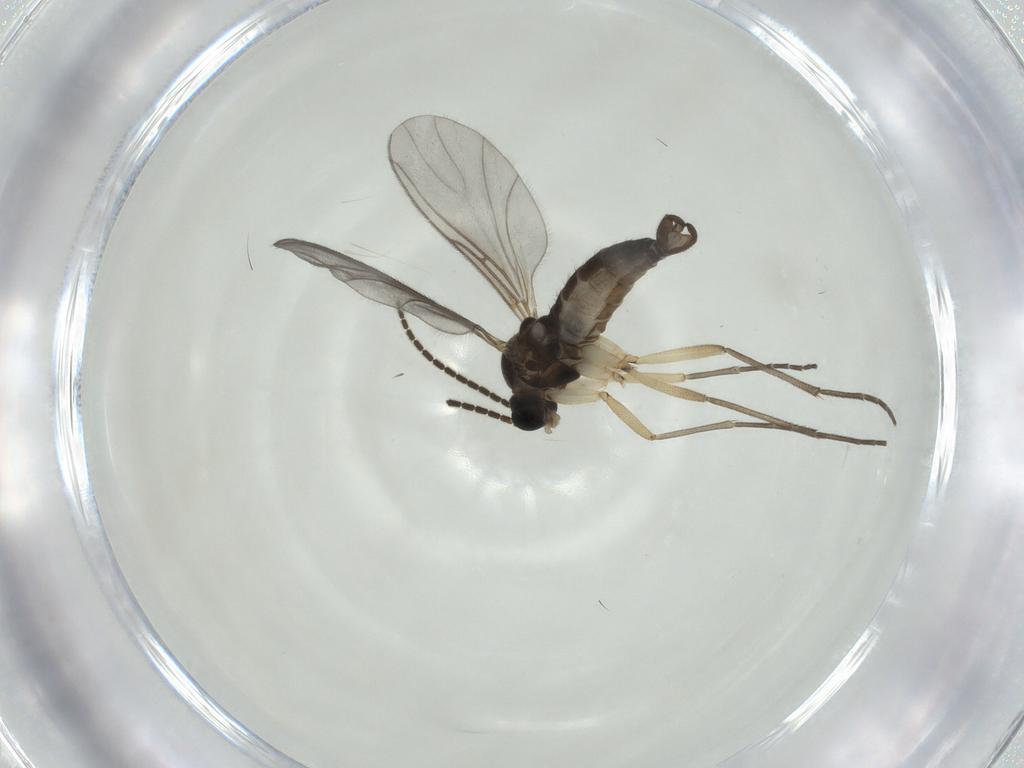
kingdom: Animalia
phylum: Arthropoda
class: Insecta
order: Diptera
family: Sciaridae
